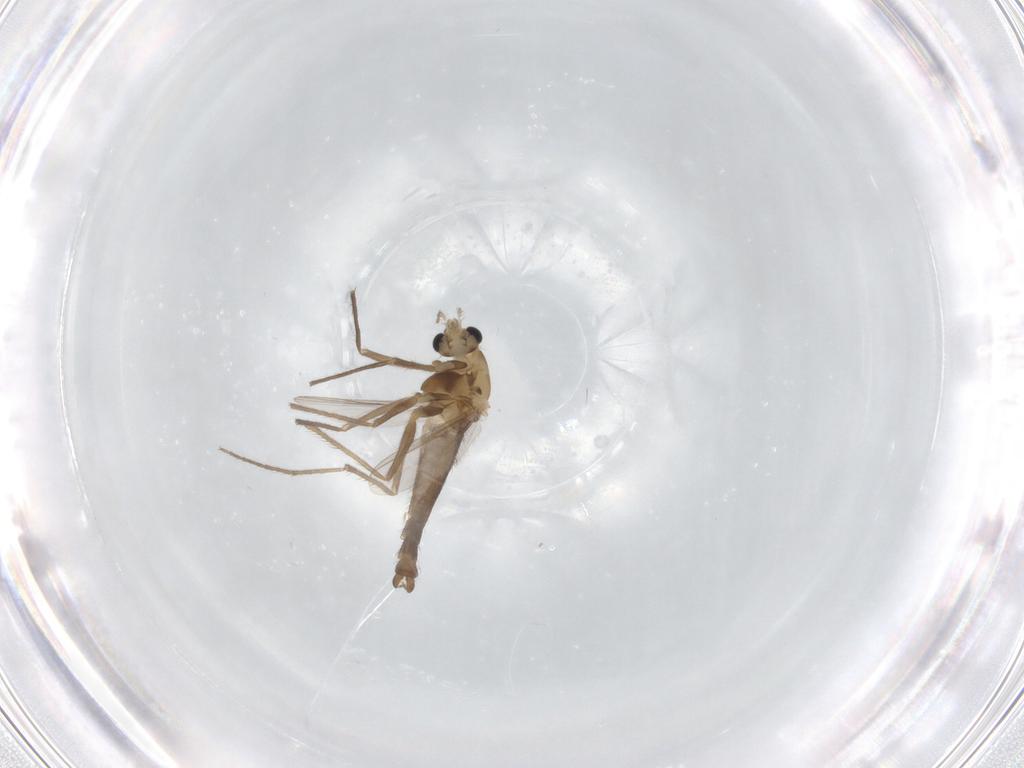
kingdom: Animalia
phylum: Arthropoda
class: Insecta
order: Diptera
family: Chironomidae
